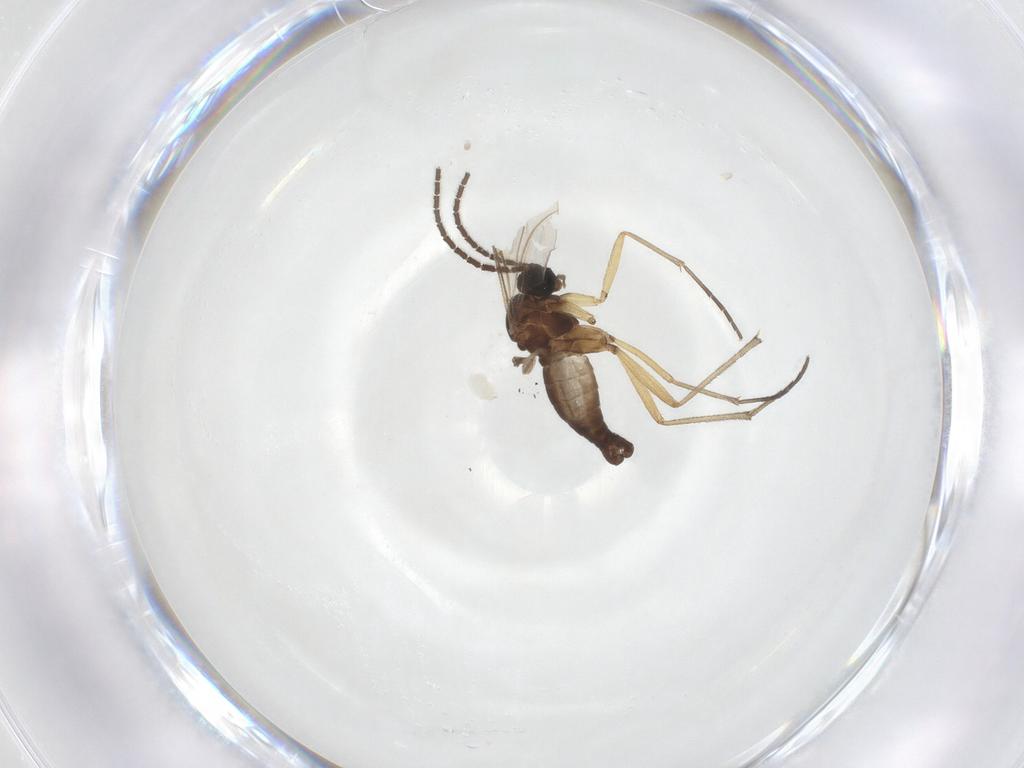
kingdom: Animalia
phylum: Arthropoda
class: Insecta
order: Diptera
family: Sciaridae
